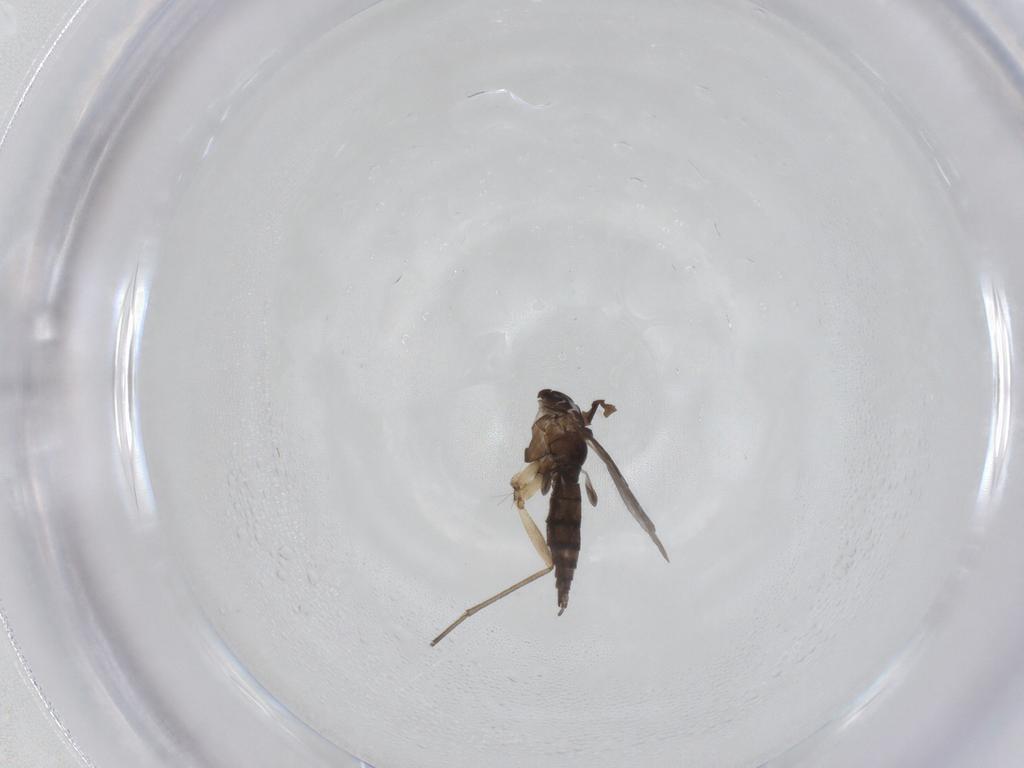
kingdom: Animalia
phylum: Arthropoda
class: Insecta
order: Diptera
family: Sciaridae
